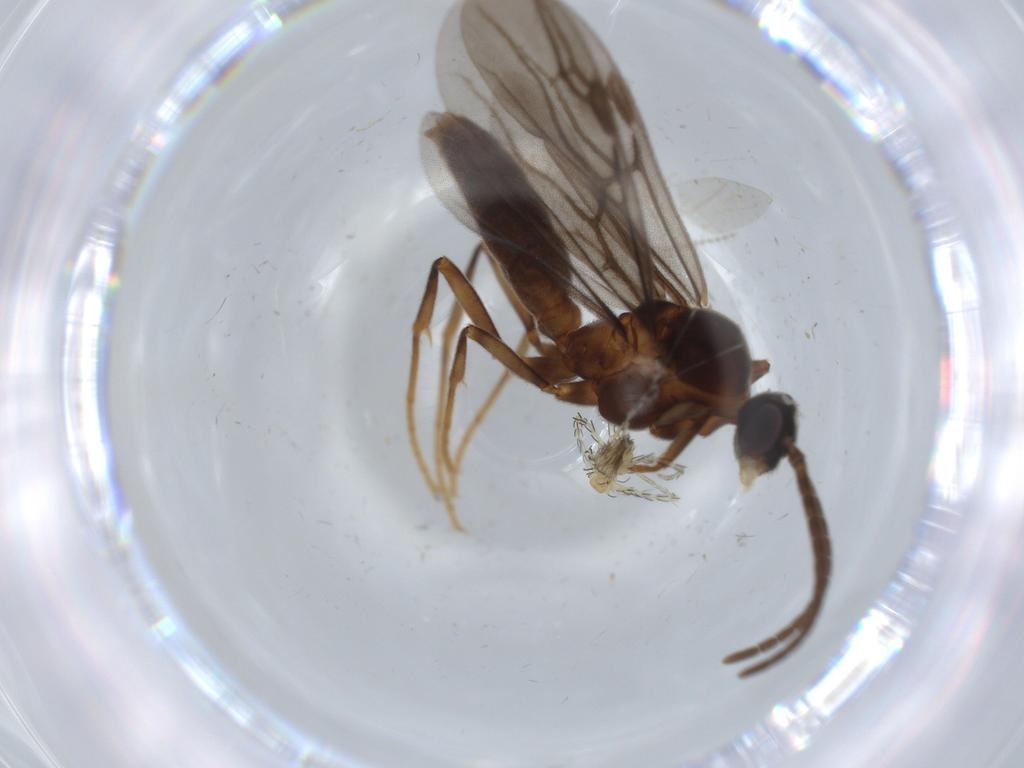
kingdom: Animalia
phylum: Arthropoda
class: Insecta
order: Hymenoptera
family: Formicidae
